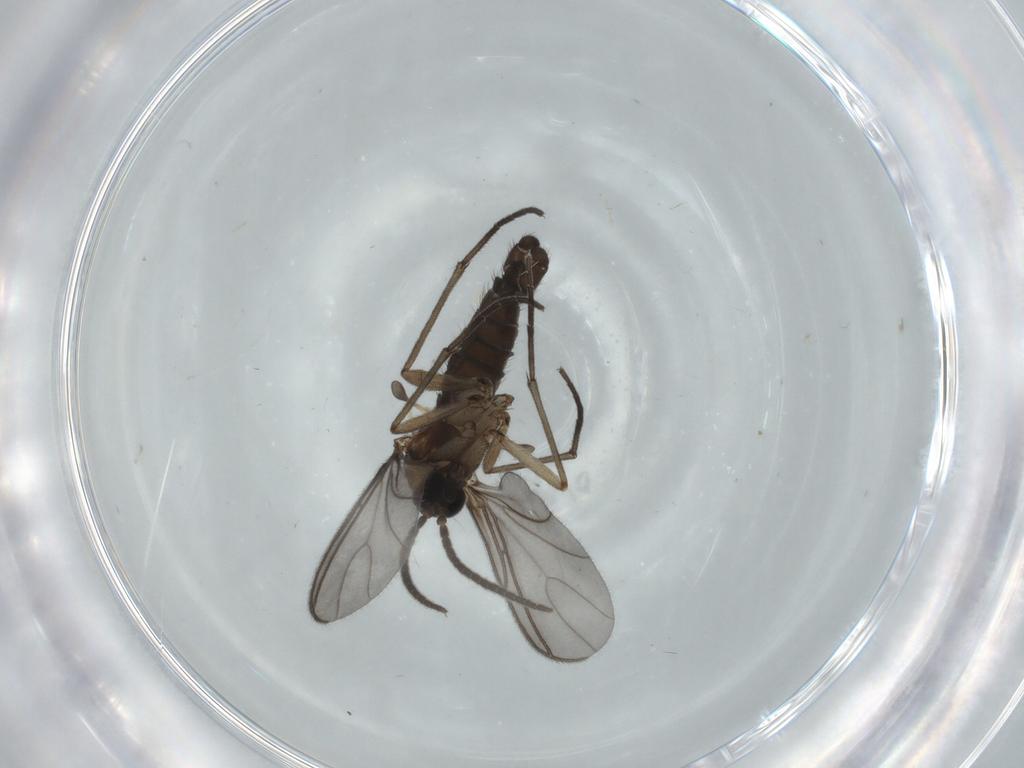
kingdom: Animalia
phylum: Arthropoda
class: Insecta
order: Diptera
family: Sciaridae
